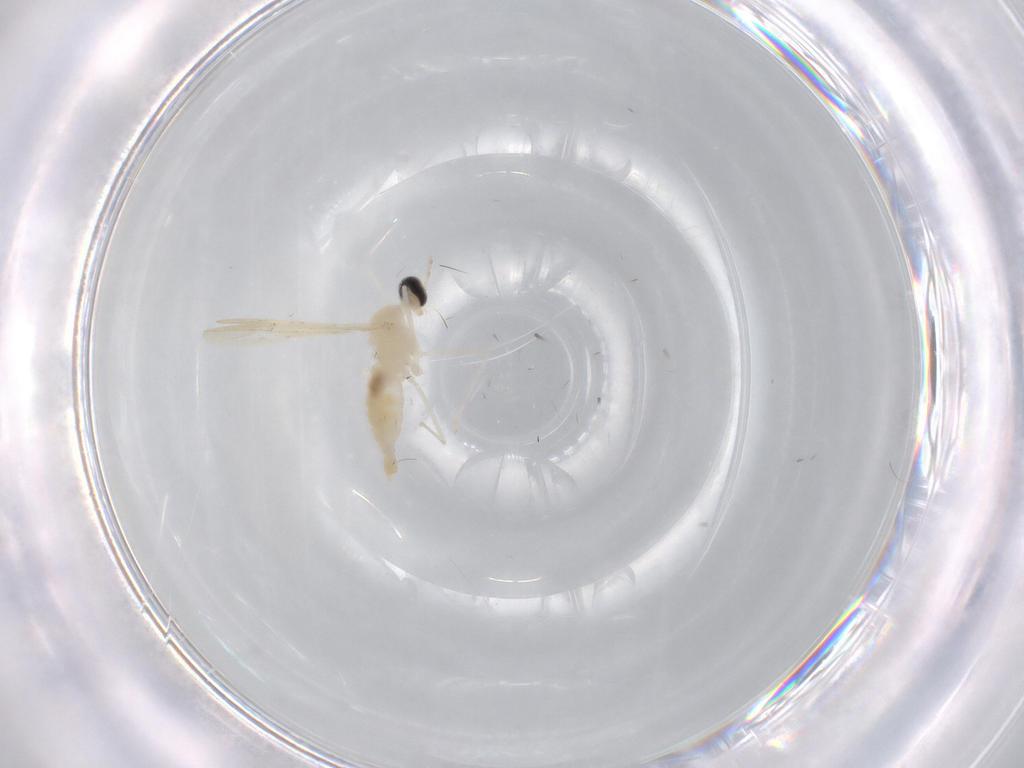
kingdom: Animalia
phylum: Arthropoda
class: Insecta
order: Diptera
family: Cecidomyiidae
